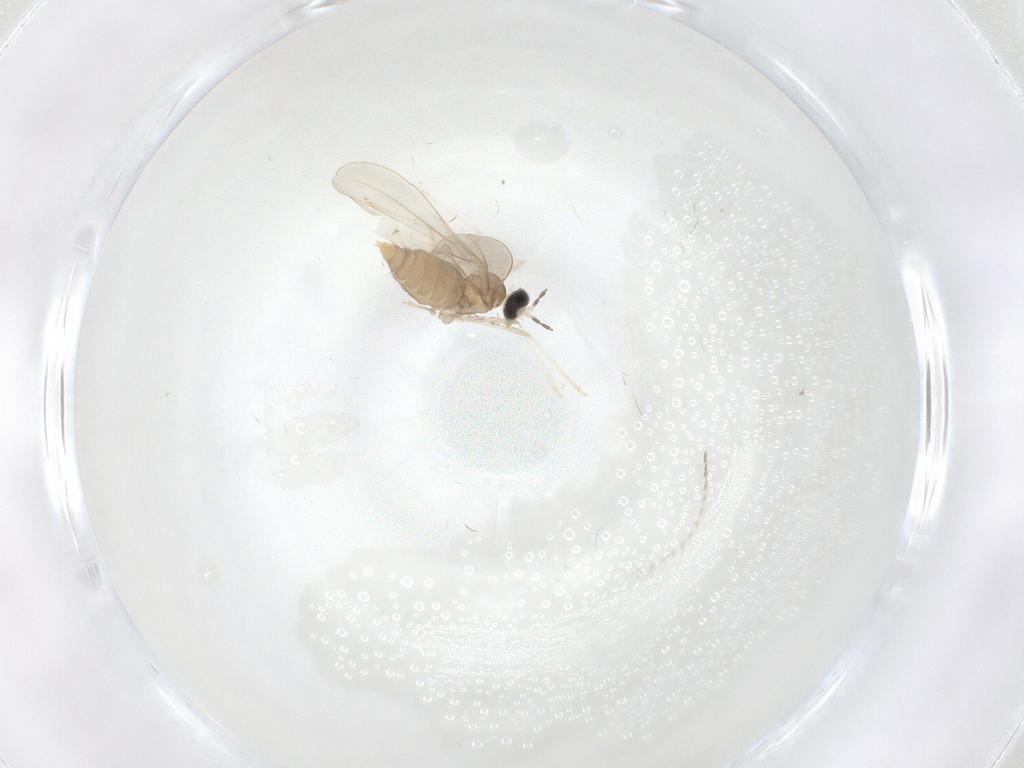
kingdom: Animalia
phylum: Arthropoda
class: Insecta
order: Diptera
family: Cecidomyiidae
